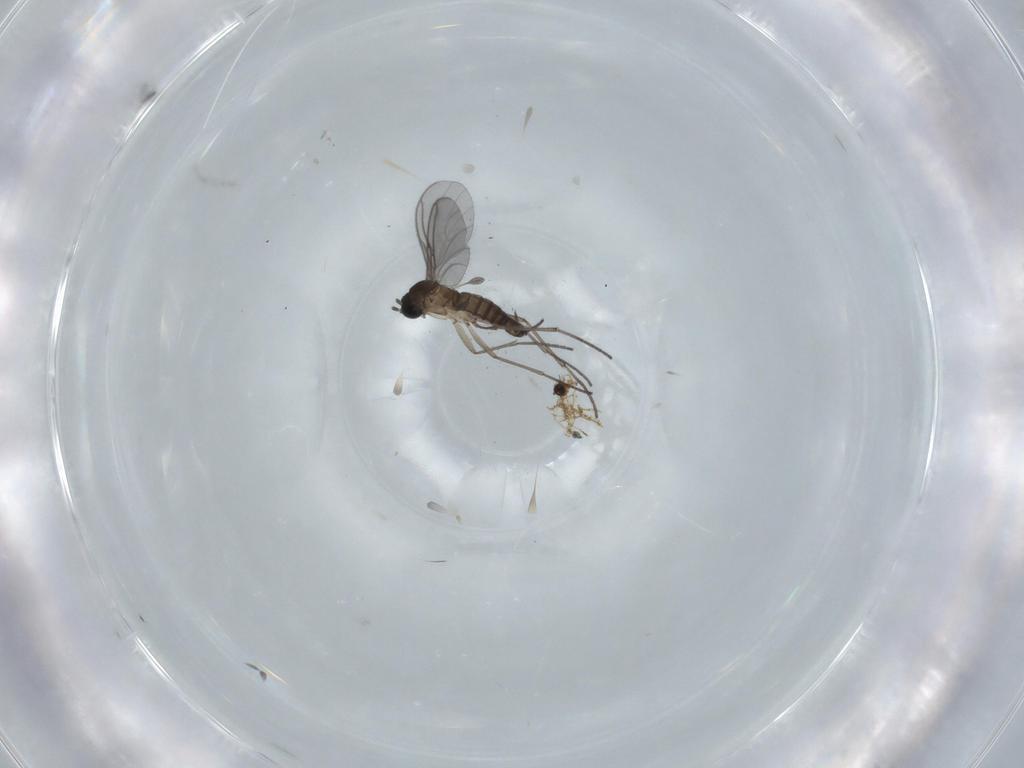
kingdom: Animalia
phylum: Arthropoda
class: Insecta
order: Diptera
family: Sciaridae
